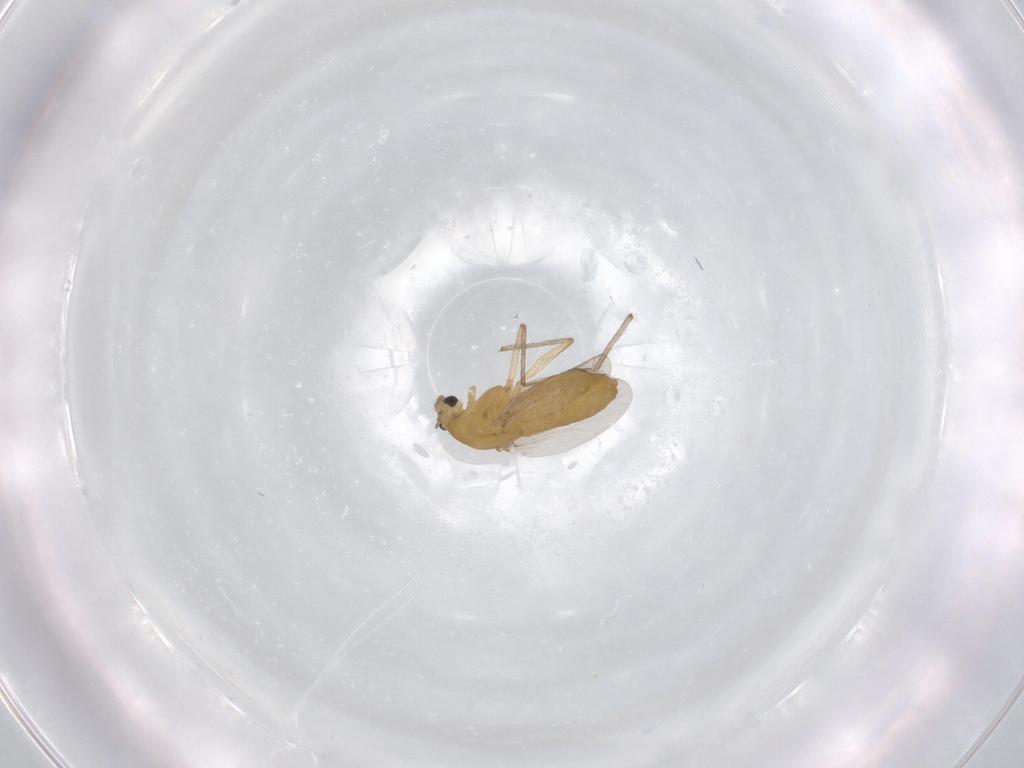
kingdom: Animalia
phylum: Arthropoda
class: Insecta
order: Diptera
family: Chironomidae
